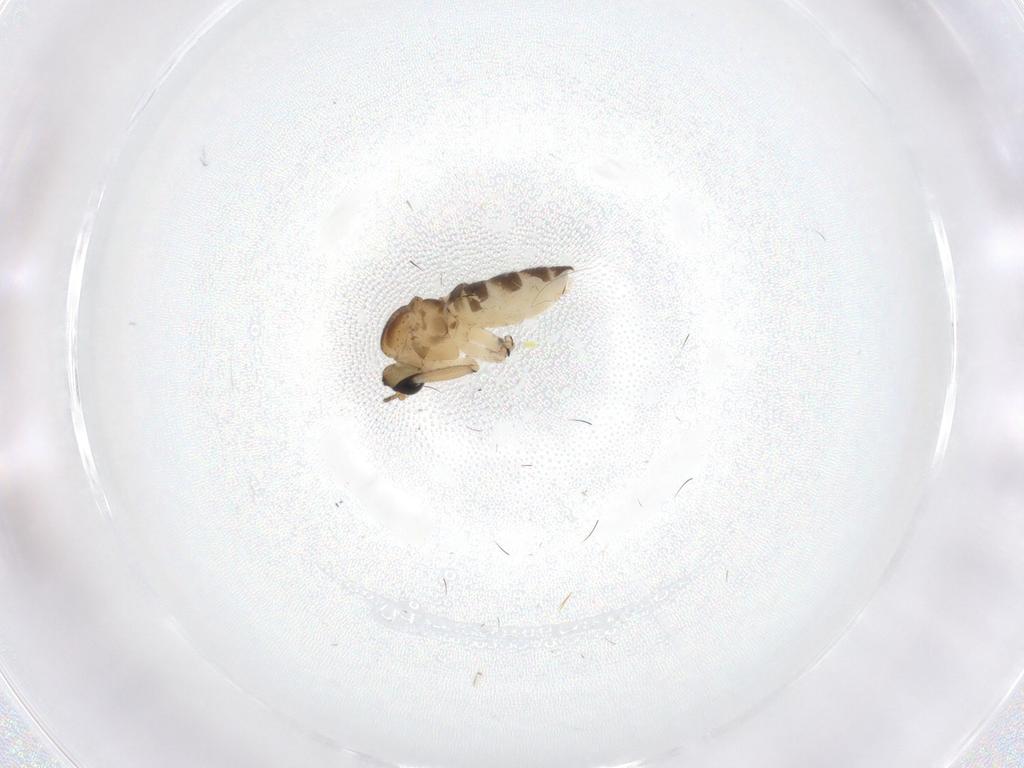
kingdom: Animalia
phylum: Arthropoda
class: Insecta
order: Diptera
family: Sciaridae
